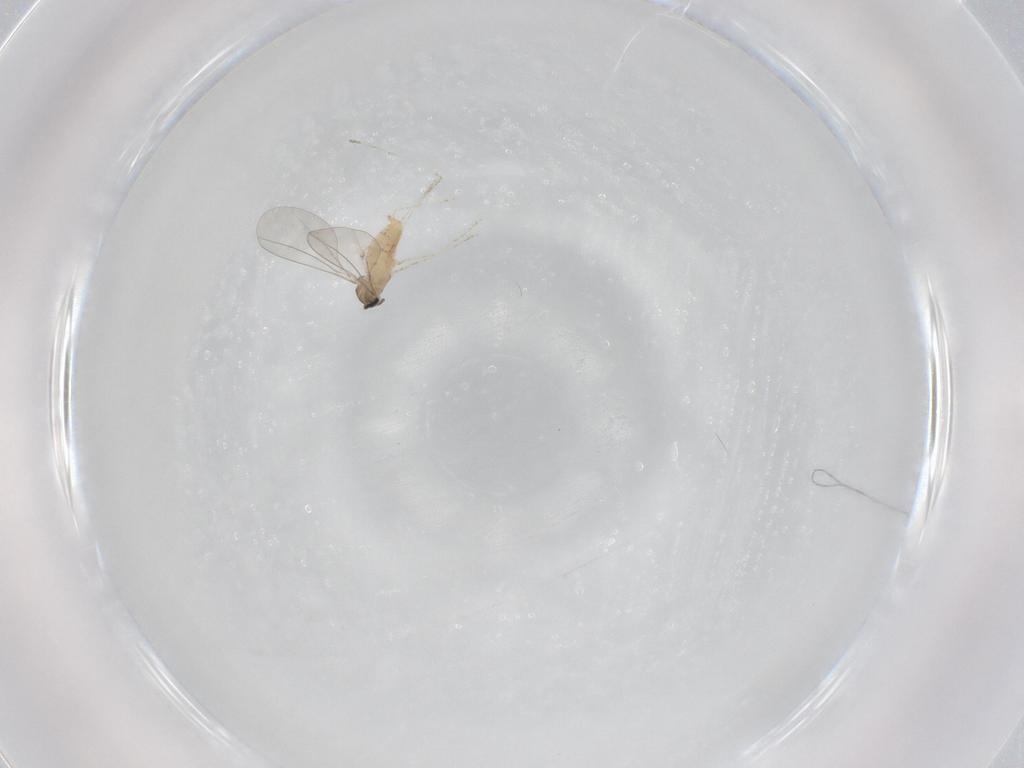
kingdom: Animalia
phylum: Arthropoda
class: Insecta
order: Diptera
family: Cecidomyiidae
